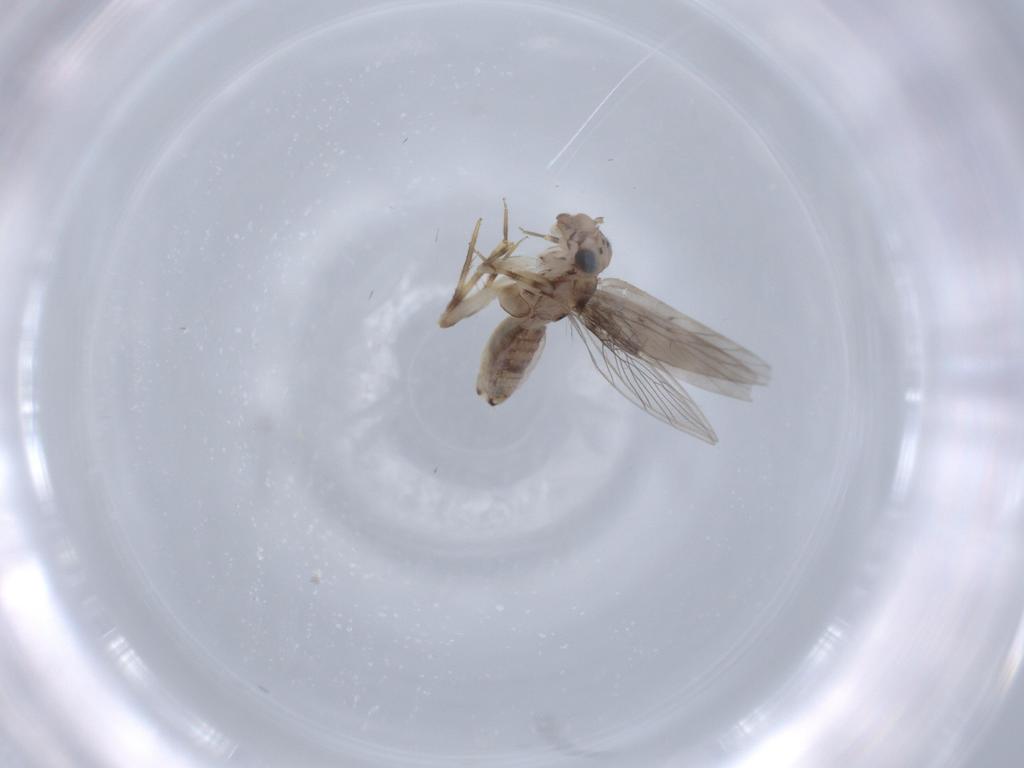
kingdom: Animalia
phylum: Arthropoda
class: Insecta
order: Psocodea
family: Lepidopsocidae
